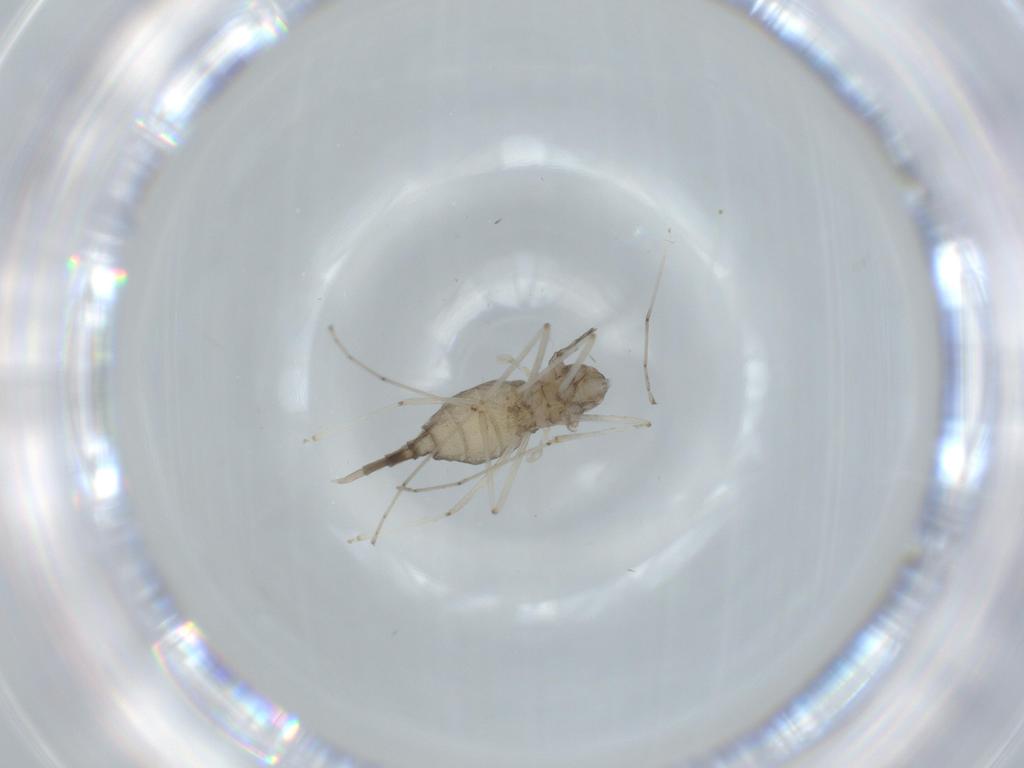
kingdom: Animalia
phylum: Arthropoda
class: Insecta
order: Diptera
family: Cecidomyiidae
